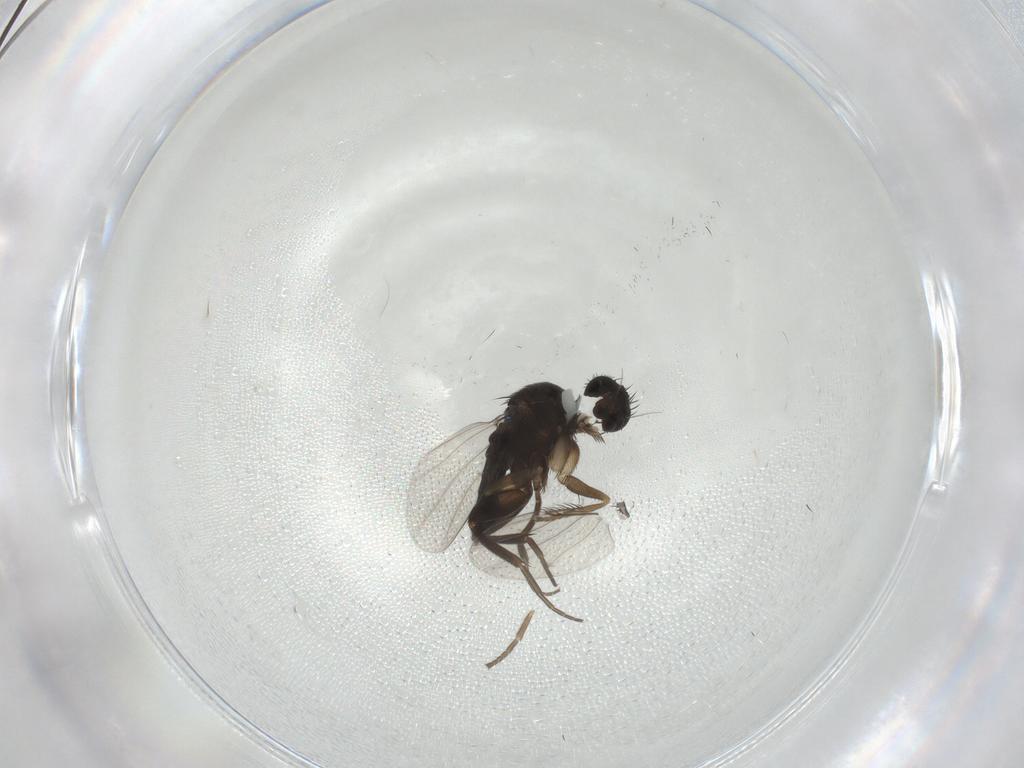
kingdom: Animalia
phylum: Arthropoda
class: Insecta
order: Diptera
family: Phoridae
